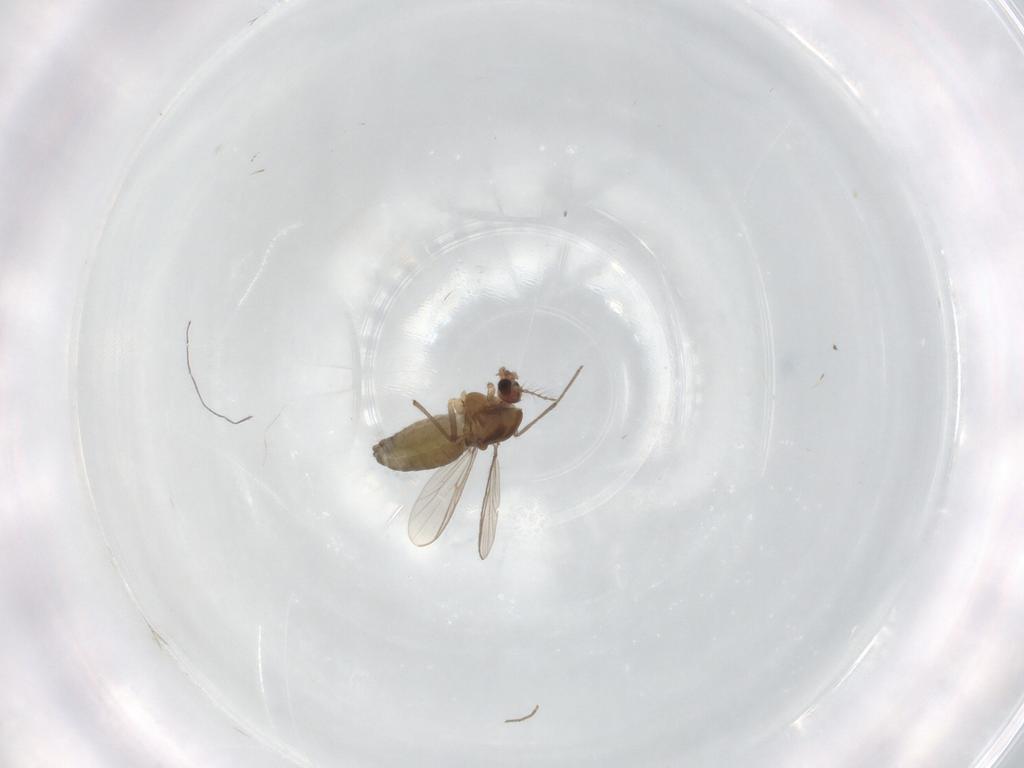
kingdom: Animalia
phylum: Arthropoda
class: Insecta
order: Diptera
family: Chironomidae
